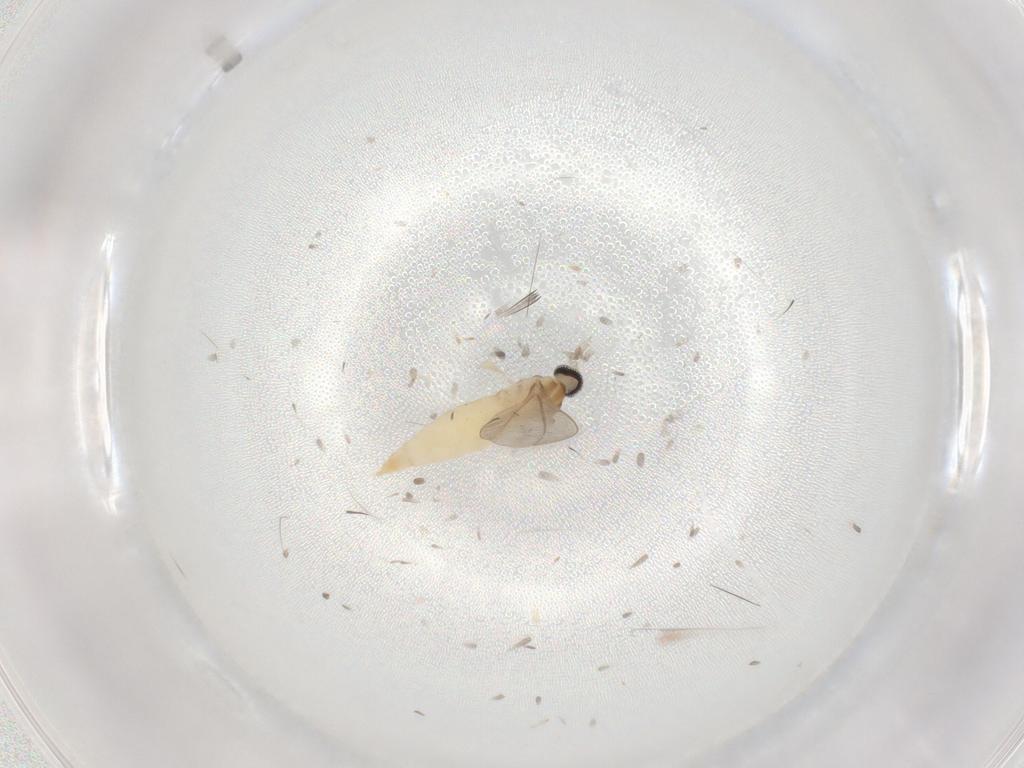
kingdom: Animalia
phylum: Arthropoda
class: Insecta
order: Diptera
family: Cecidomyiidae
